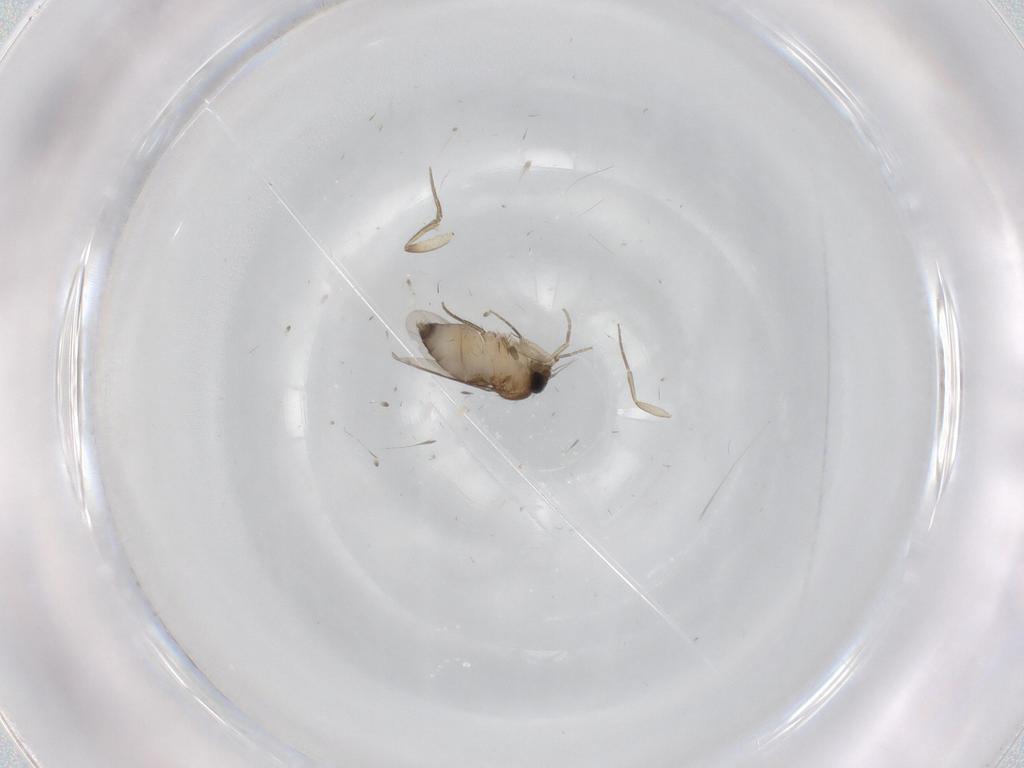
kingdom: Animalia
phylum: Arthropoda
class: Insecta
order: Diptera
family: Phoridae
